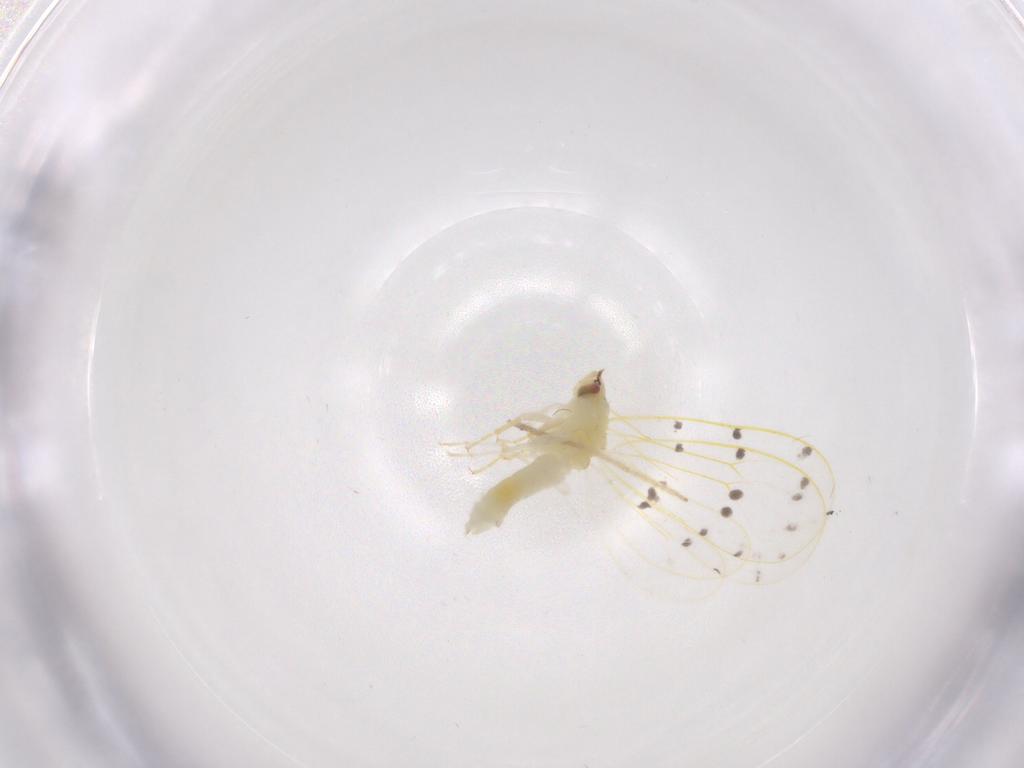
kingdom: Animalia
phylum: Arthropoda
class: Insecta
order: Hemiptera
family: Aleyrodidae
